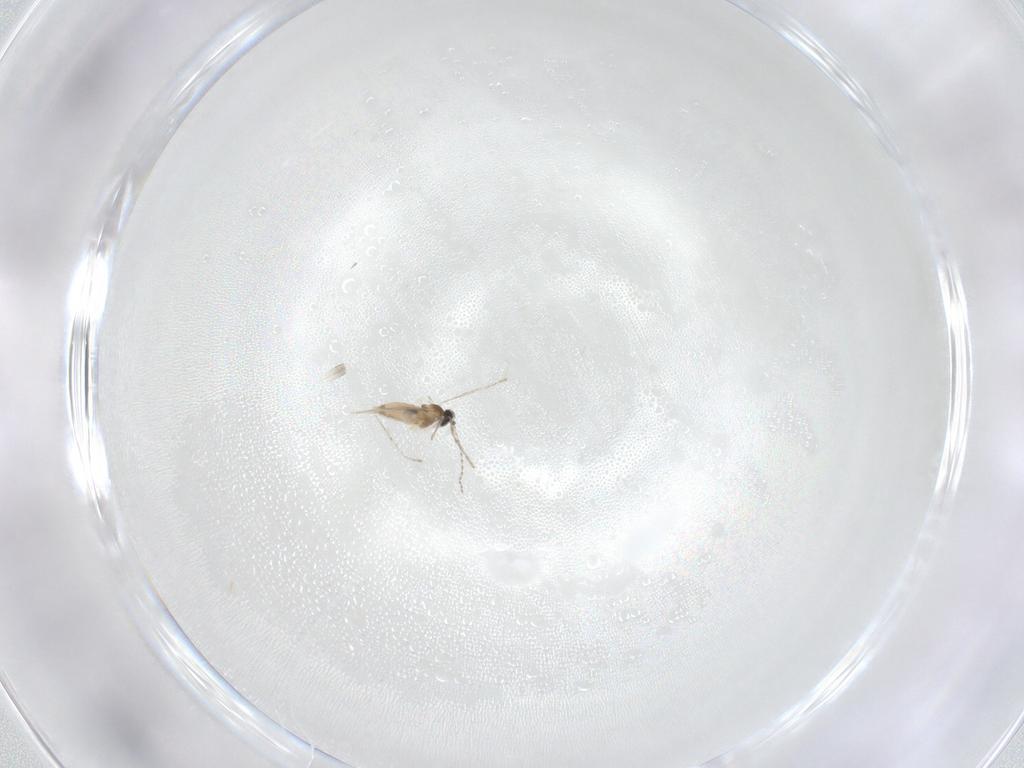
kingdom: Animalia
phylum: Arthropoda
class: Insecta
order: Diptera
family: Cecidomyiidae
